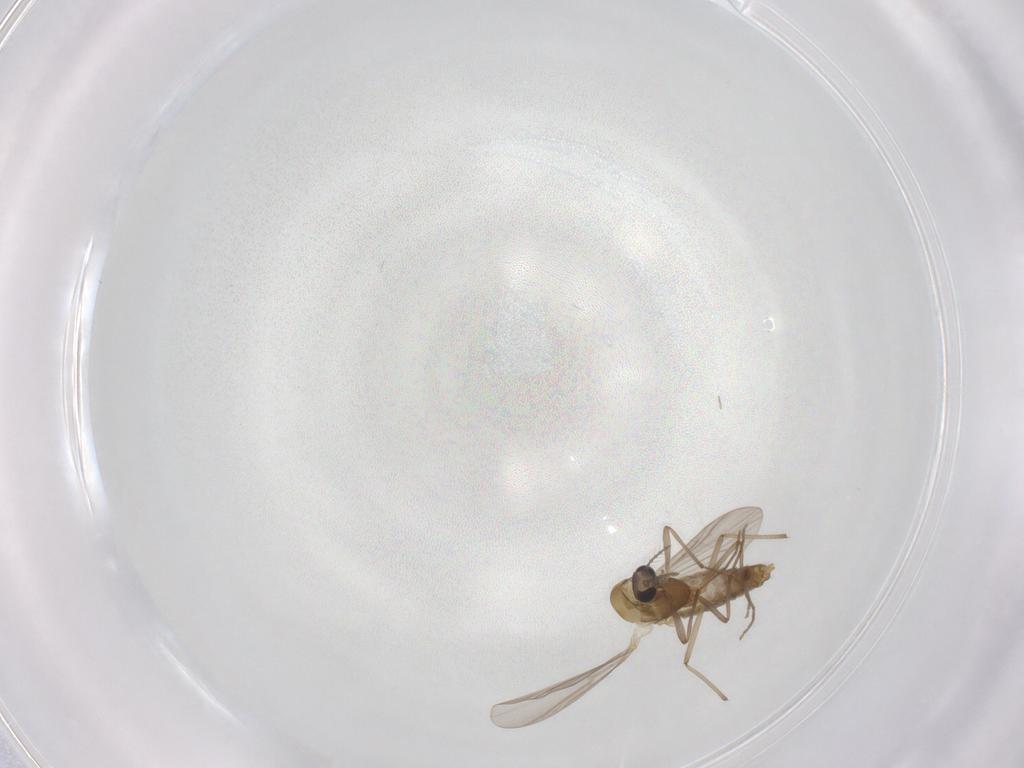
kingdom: Animalia
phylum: Arthropoda
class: Insecta
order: Diptera
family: Chironomidae
